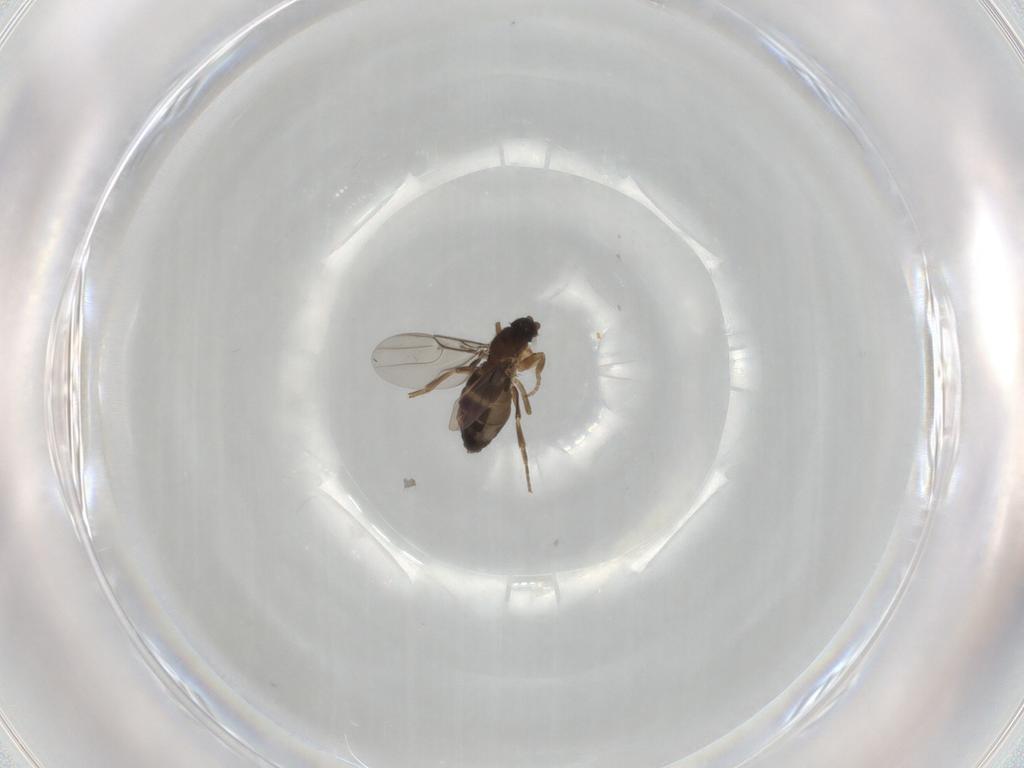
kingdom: Animalia
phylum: Arthropoda
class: Insecta
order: Diptera
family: Phoridae
